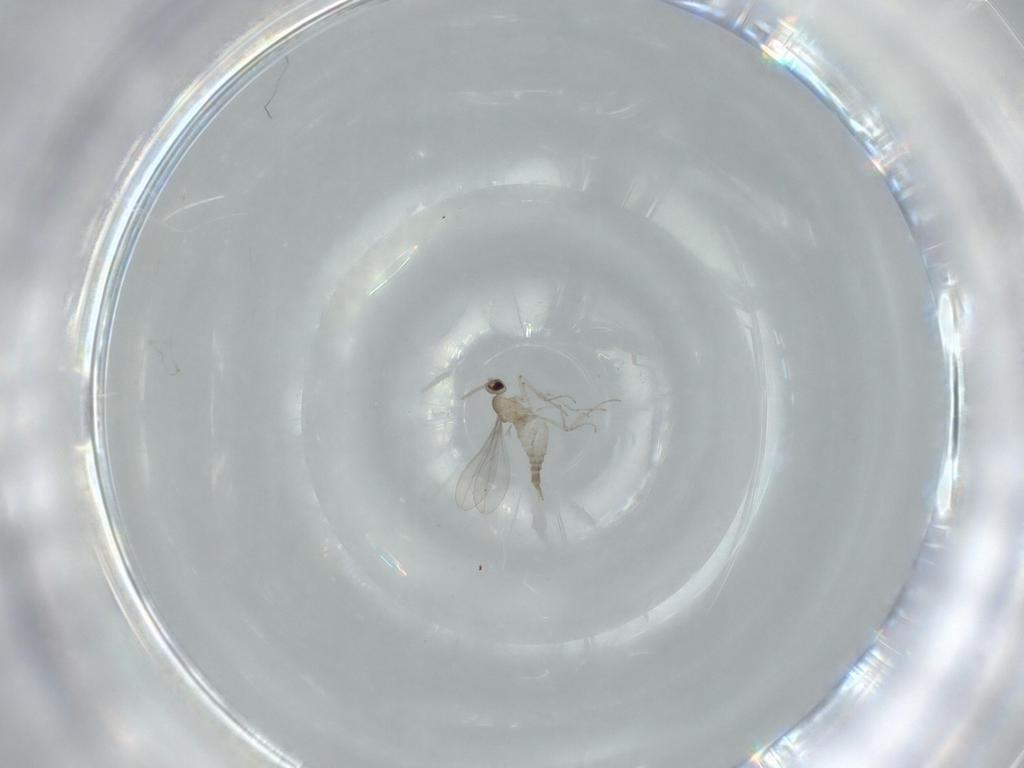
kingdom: Animalia
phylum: Arthropoda
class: Insecta
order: Diptera
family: Cecidomyiidae
